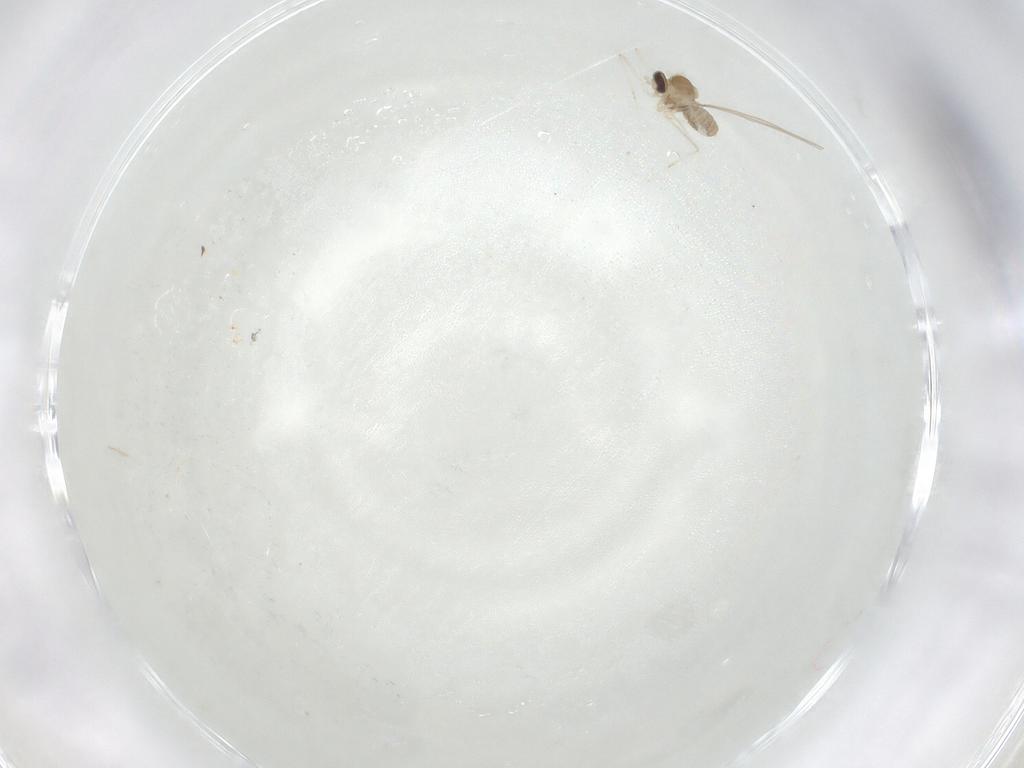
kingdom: Animalia
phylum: Arthropoda
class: Insecta
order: Diptera
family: Cecidomyiidae
